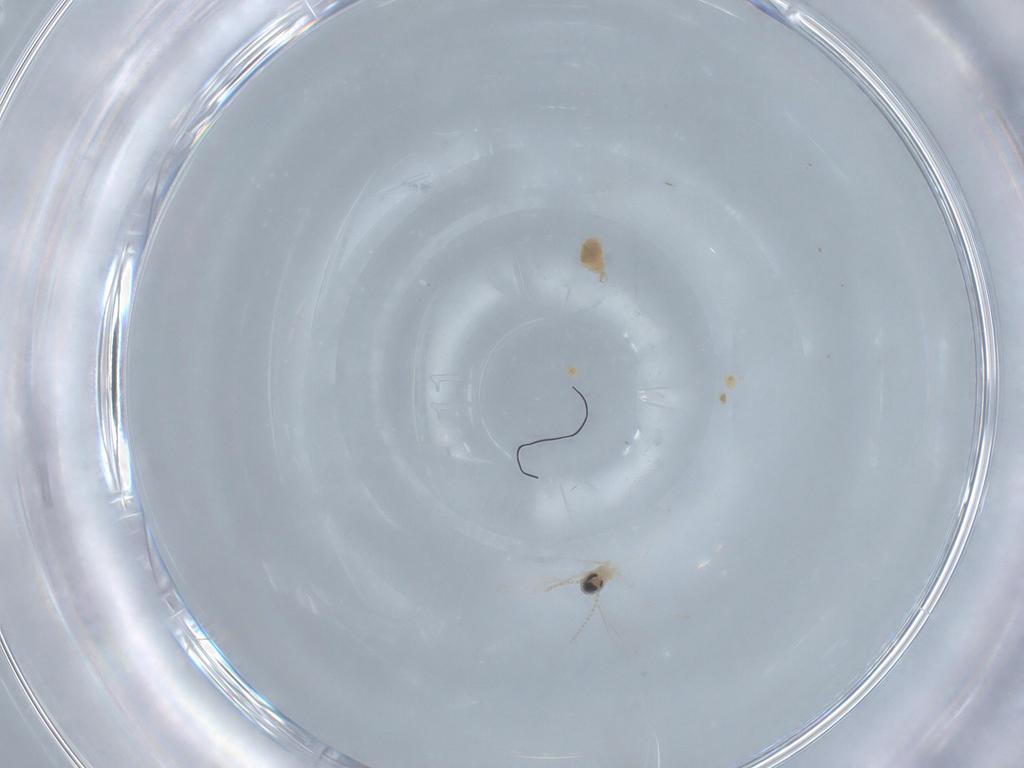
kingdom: Animalia
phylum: Arthropoda
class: Insecta
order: Diptera
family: Cecidomyiidae
